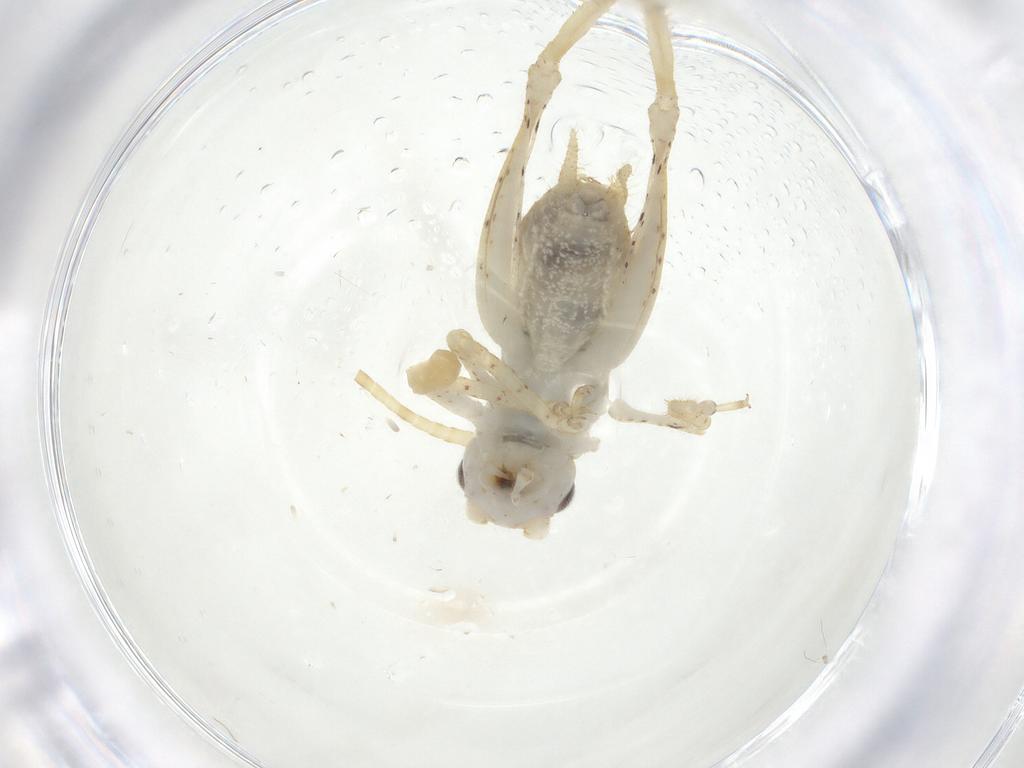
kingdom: Animalia
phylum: Arthropoda
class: Insecta
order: Orthoptera
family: Gryllidae
